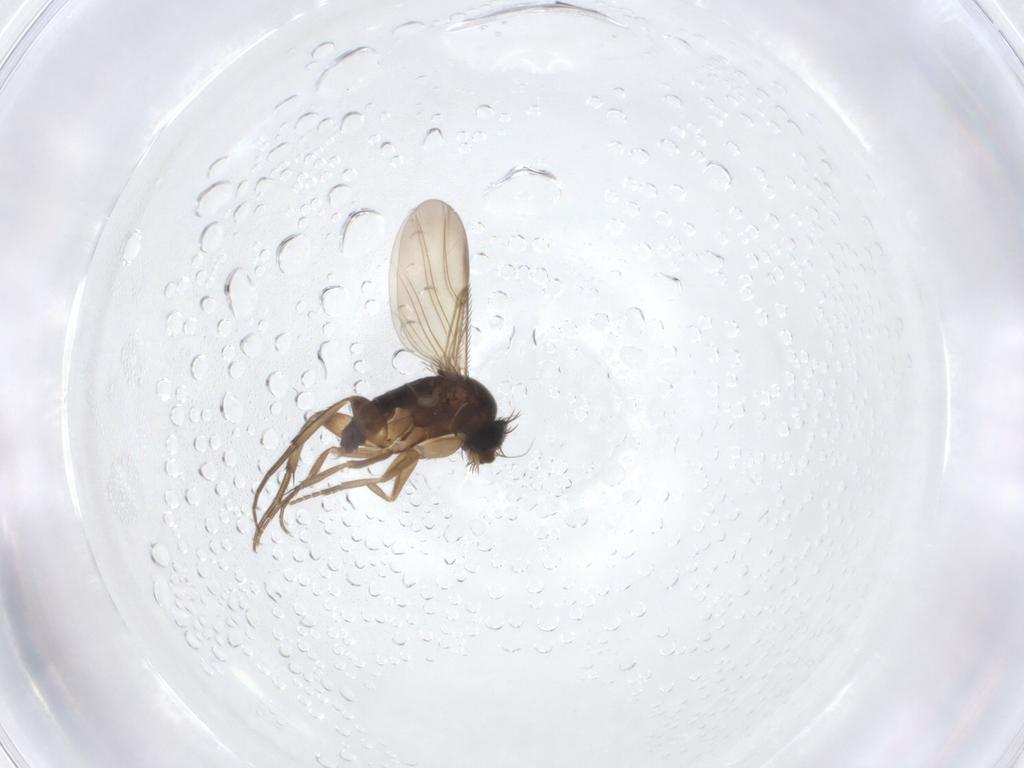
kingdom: Animalia
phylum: Arthropoda
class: Insecta
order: Diptera
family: Phoridae
